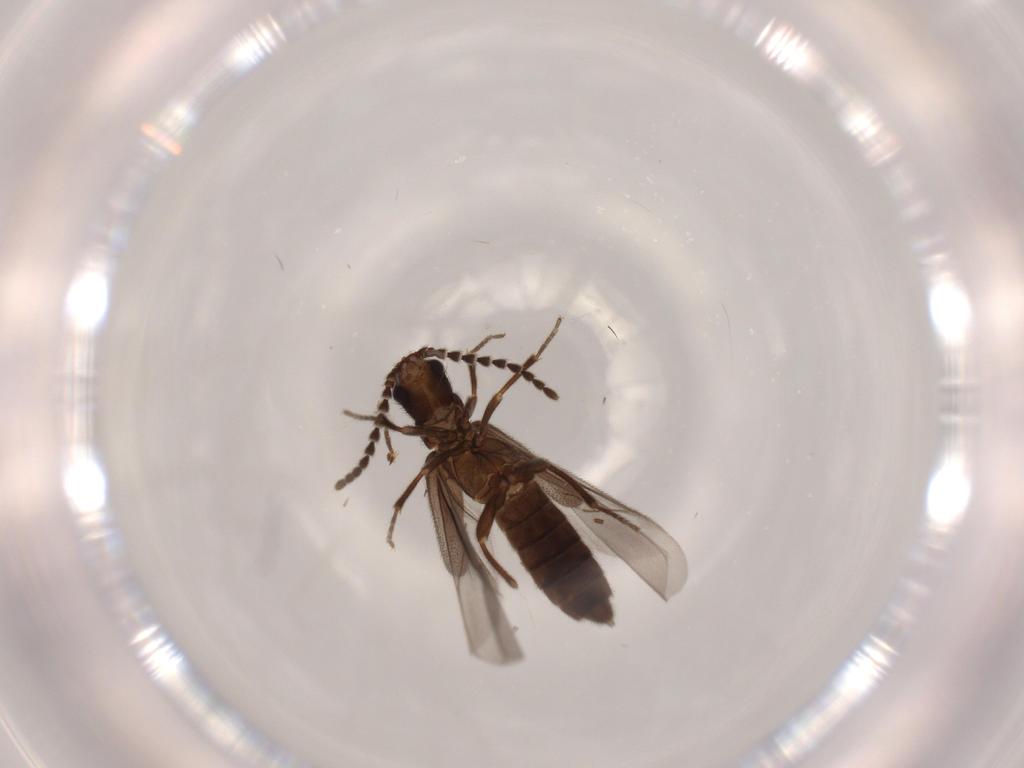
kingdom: Animalia
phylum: Arthropoda
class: Insecta
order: Coleoptera
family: Omethidae
